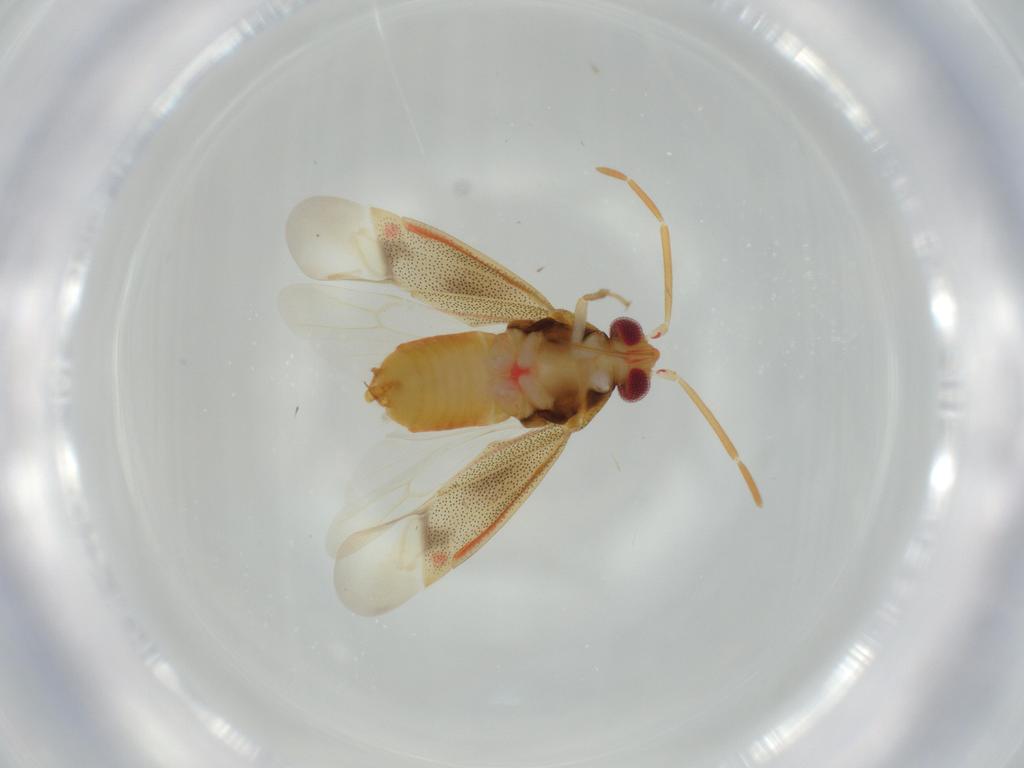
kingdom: Animalia
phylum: Arthropoda
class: Insecta
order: Hemiptera
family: Miridae
